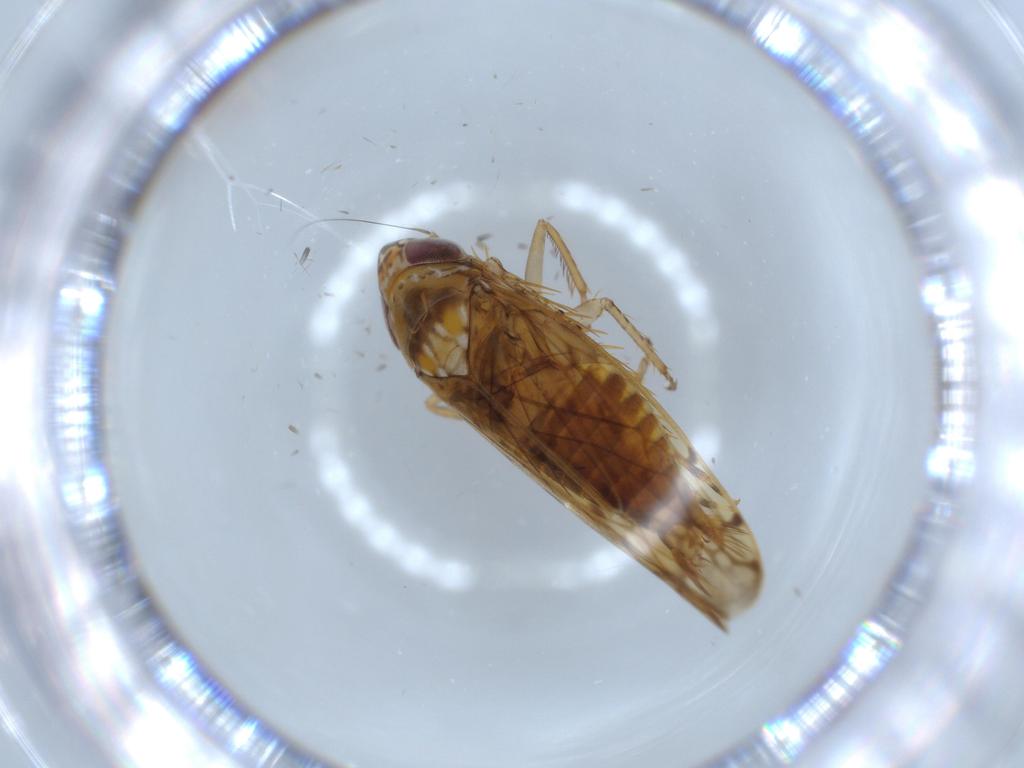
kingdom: Animalia
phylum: Arthropoda
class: Insecta
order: Hemiptera
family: Cicadellidae
